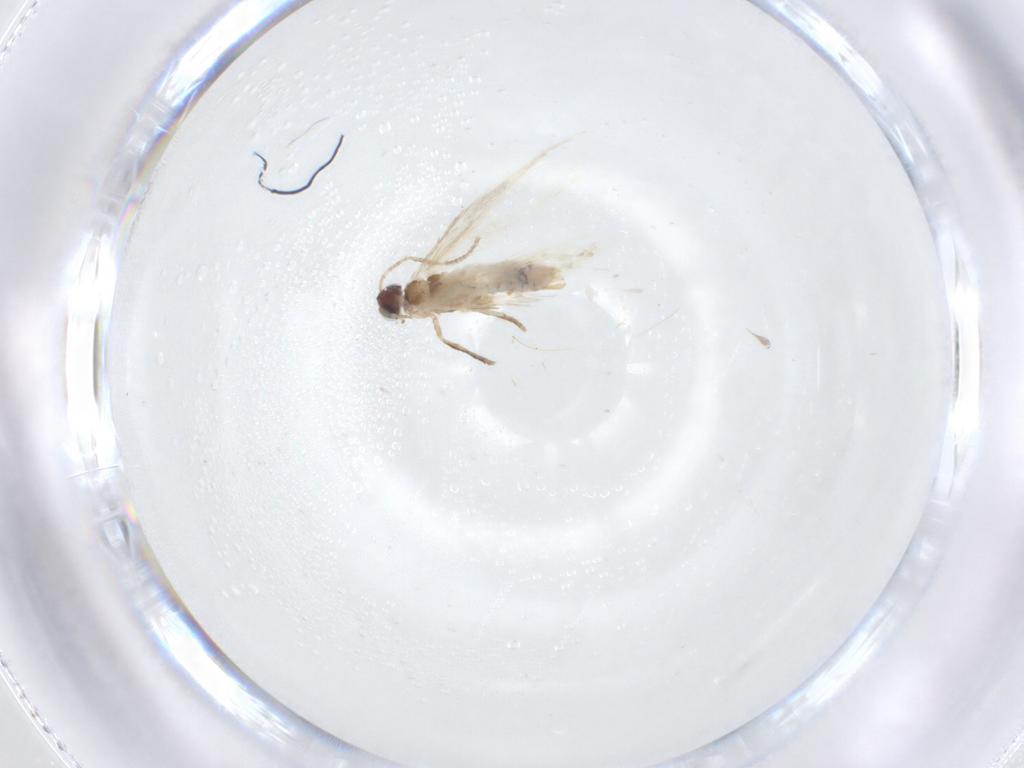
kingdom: Animalia
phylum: Arthropoda
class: Insecta
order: Lepidoptera
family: Nepticulidae
